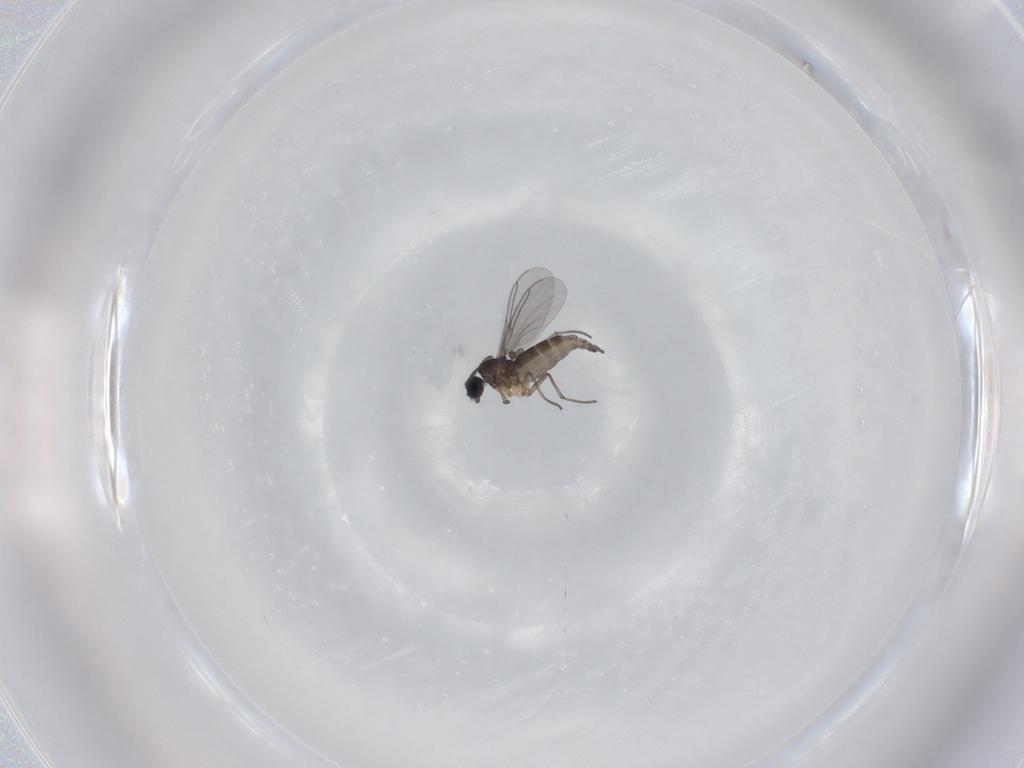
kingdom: Animalia
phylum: Arthropoda
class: Insecta
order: Diptera
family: Sciaridae
